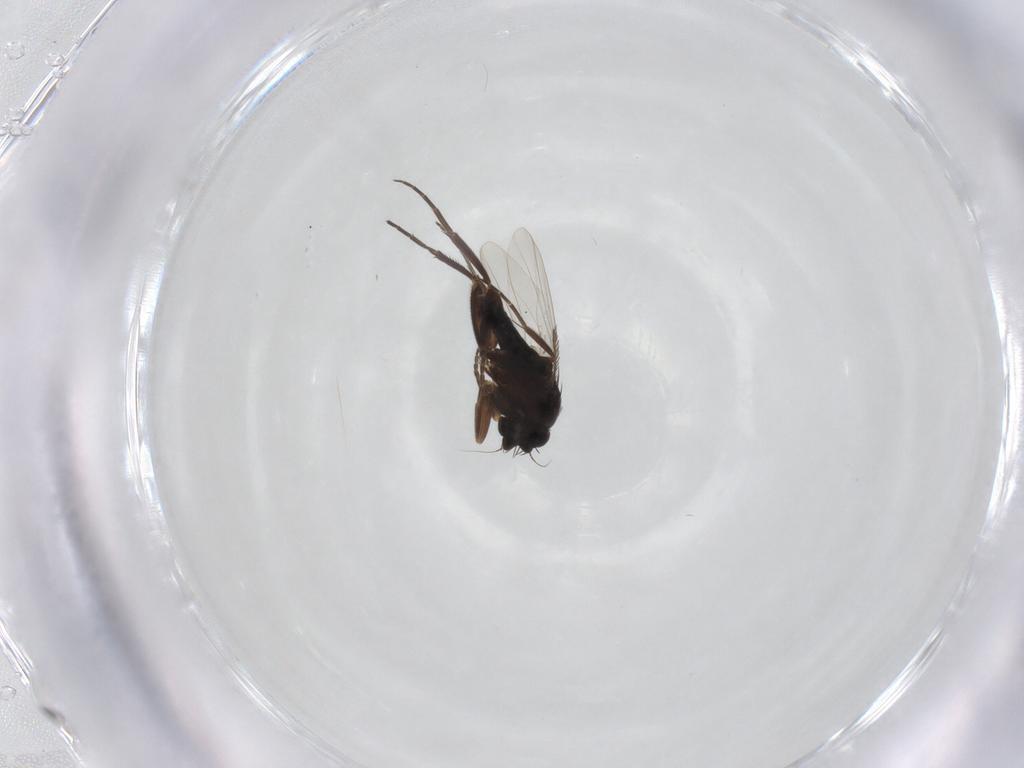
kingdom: Animalia
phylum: Arthropoda
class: Insecta
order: Diptera
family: Phoridae
